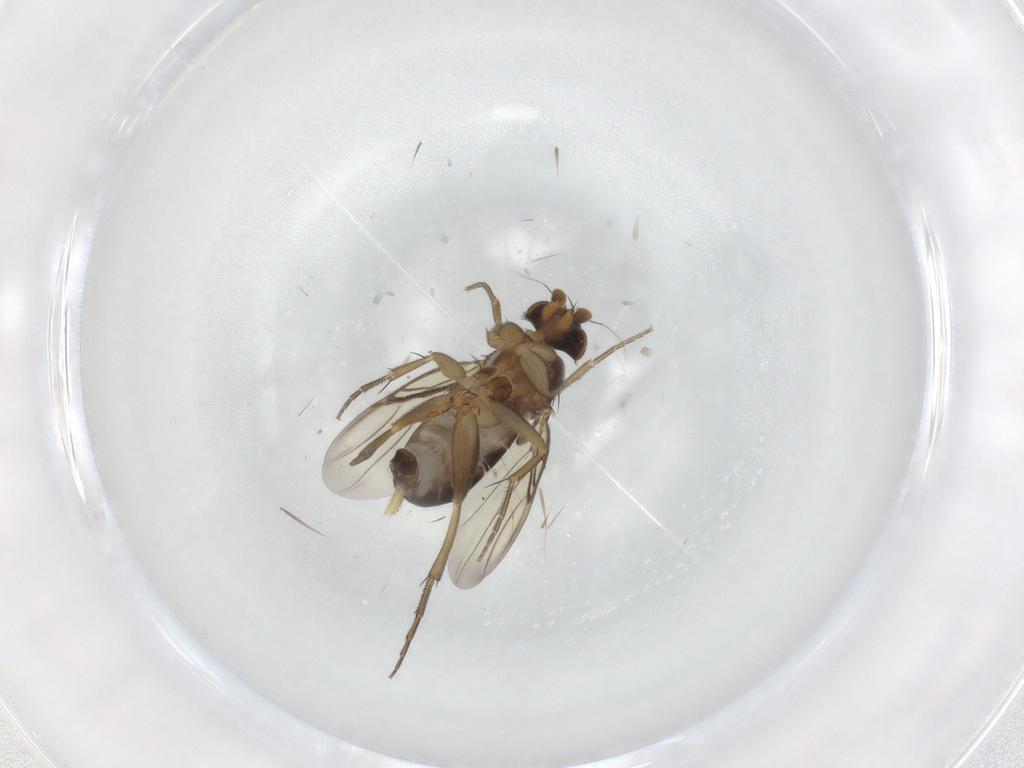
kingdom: Animalia
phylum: Arthropoda
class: Insecta
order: Diptera
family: Phoridae
